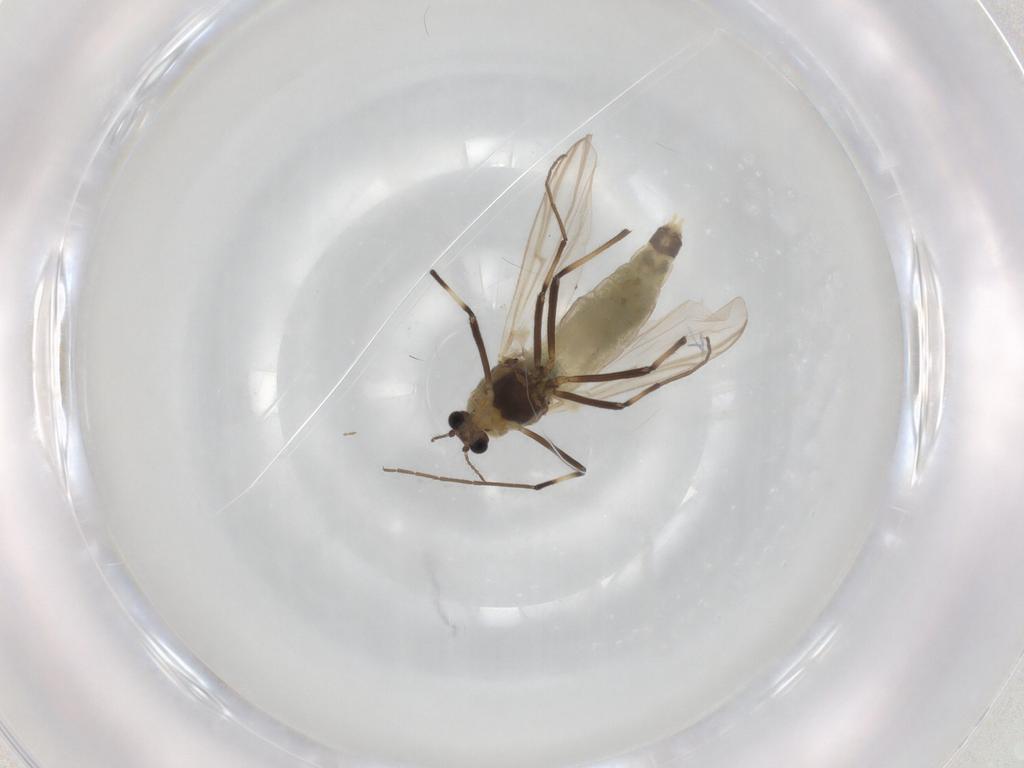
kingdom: Animalia
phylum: Arthropoda
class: Insecta
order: Diptera
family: Chironomidae
